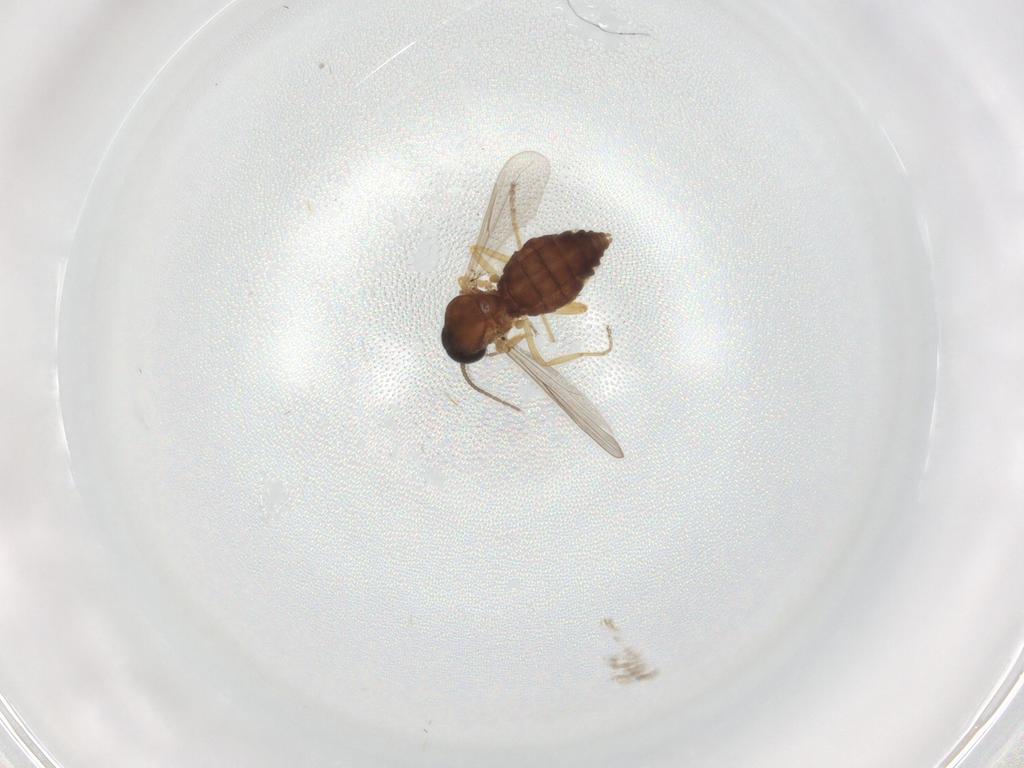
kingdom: Animalia
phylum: Arthropoda
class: Insecta
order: Diptera
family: Ceratopogonidae
